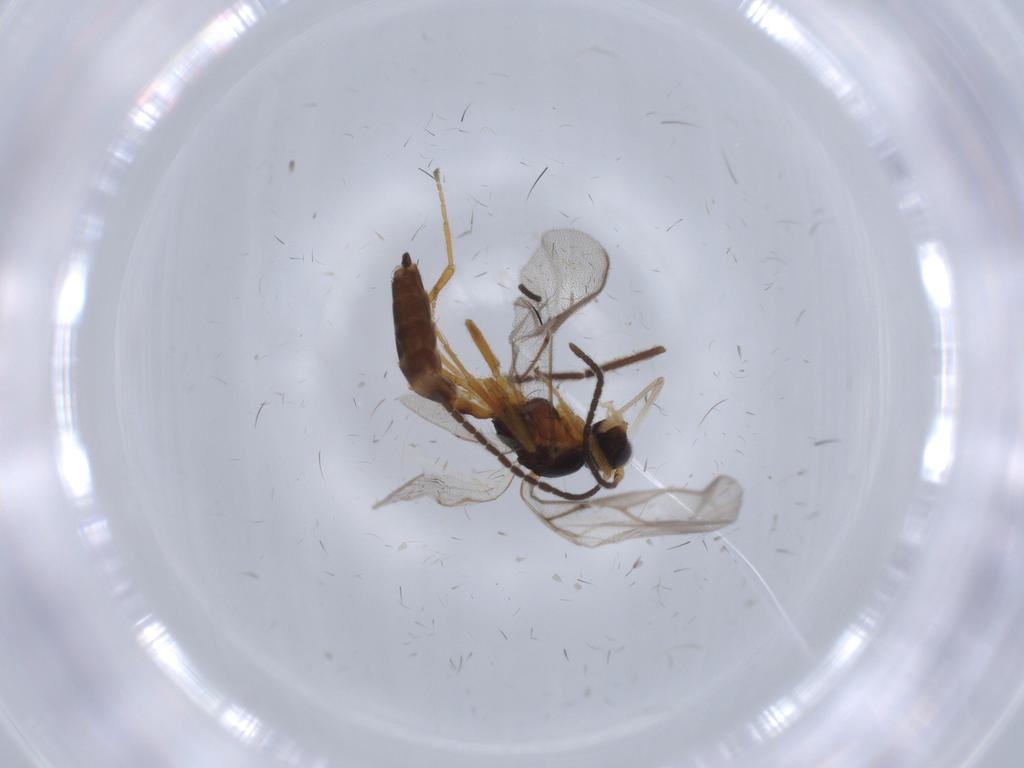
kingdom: Animalia
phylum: Arthropoda
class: Insecta
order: Hymenoptera
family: Braconidae
